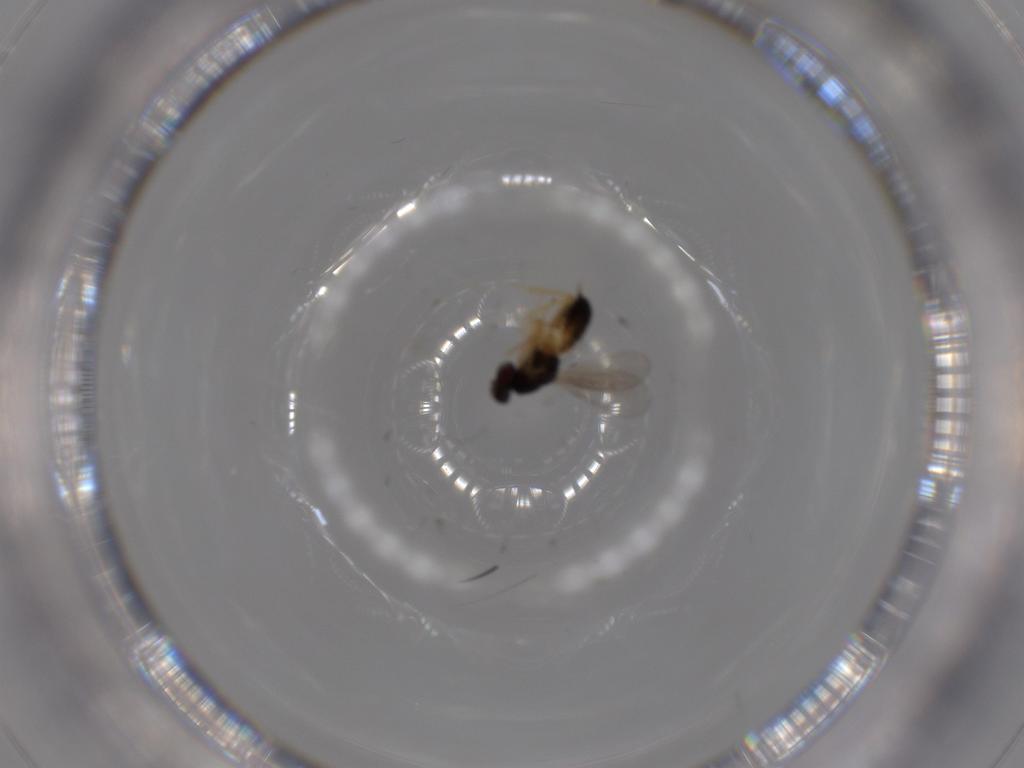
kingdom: Animalia
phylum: Arthropoda
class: Insecta
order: Hymenoptera
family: Eulophidae
